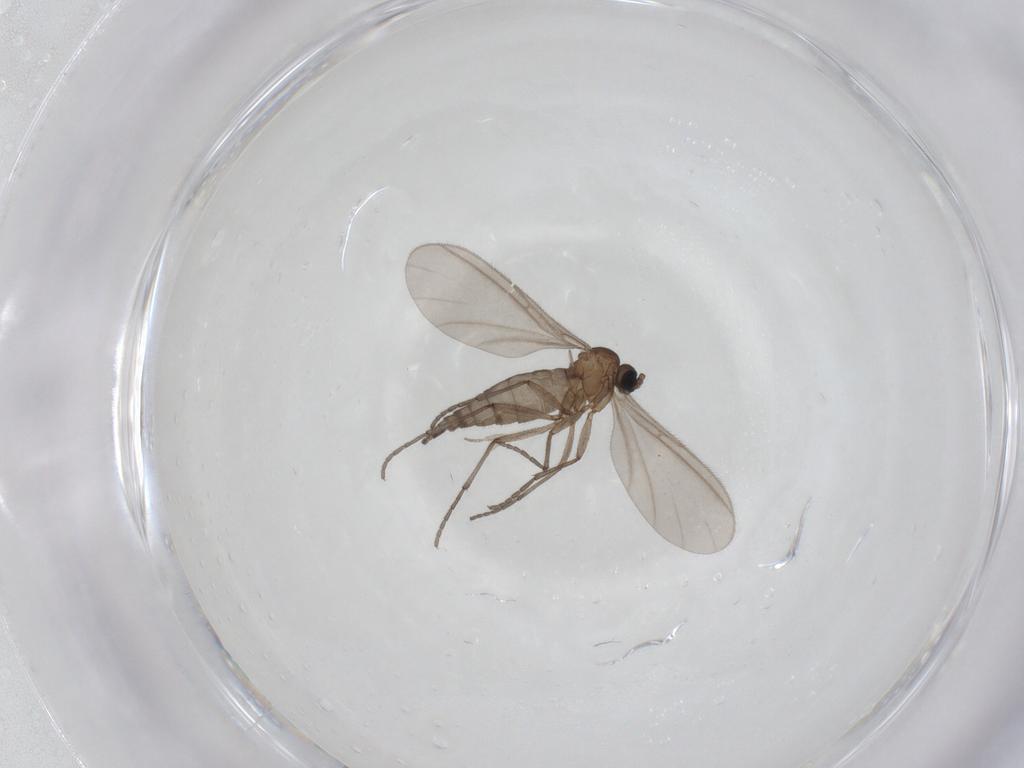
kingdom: Animalia
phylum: Arthropoda
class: Insecta
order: Diptera
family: Sciaridae
